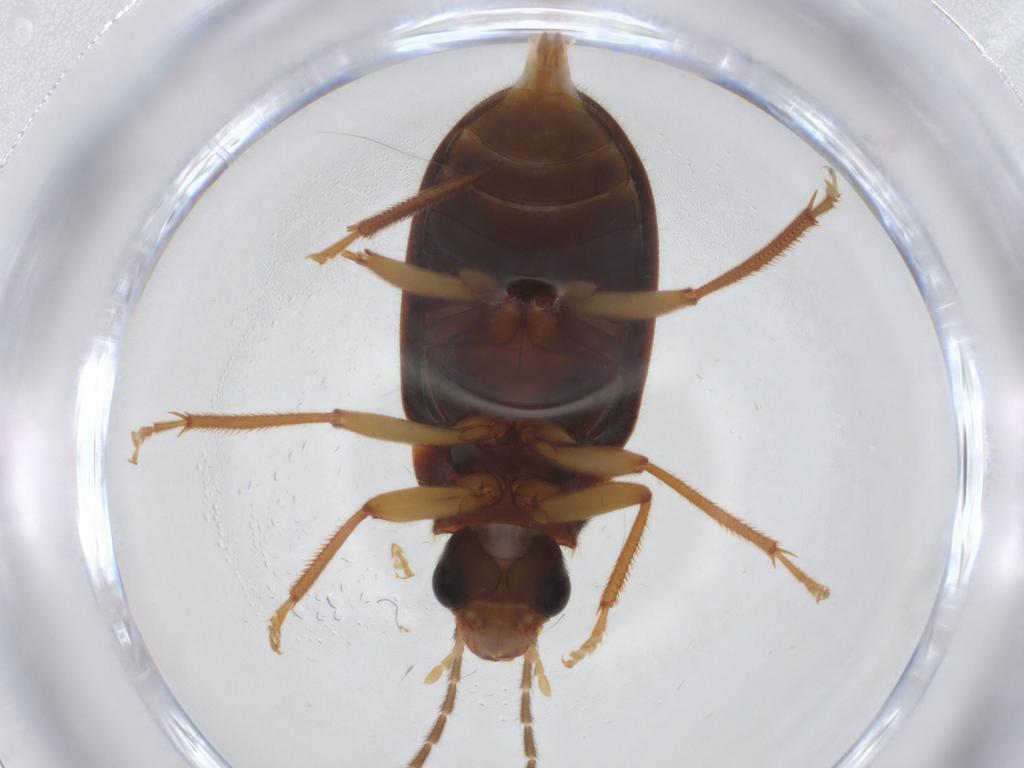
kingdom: Animalia
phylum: Arthropoda
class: Insecta
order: Coleoptera
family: Ptilodactylidae
